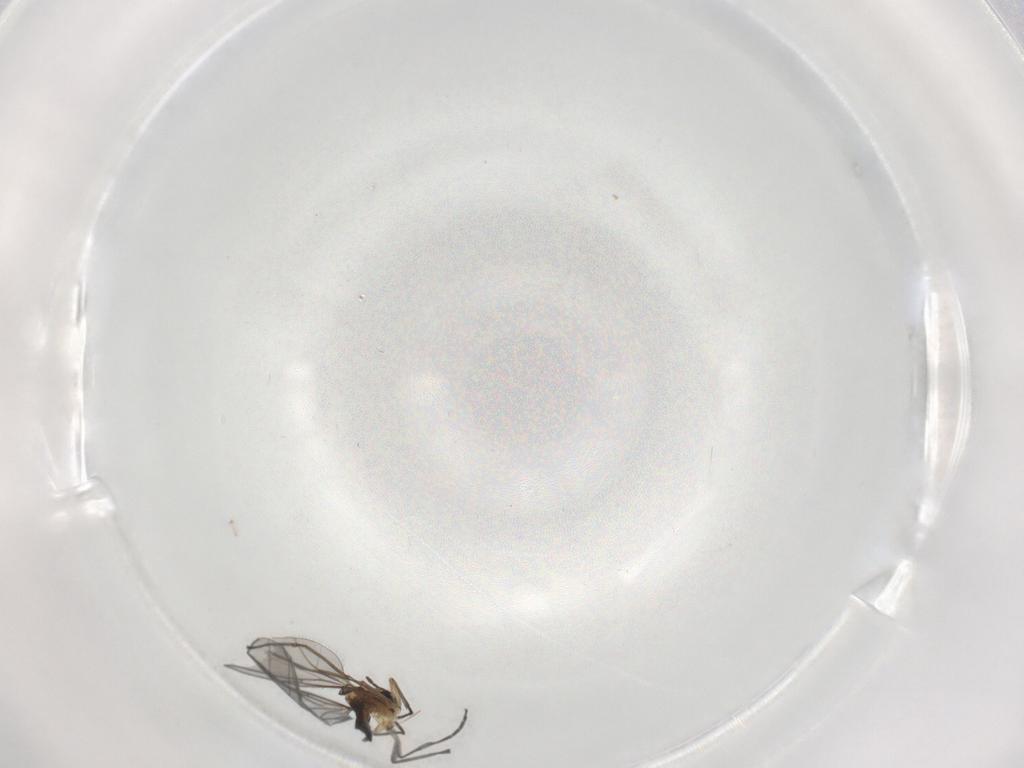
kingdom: Animalia
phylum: Arthropoda
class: Insecta
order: Diptera
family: Sciaridae
